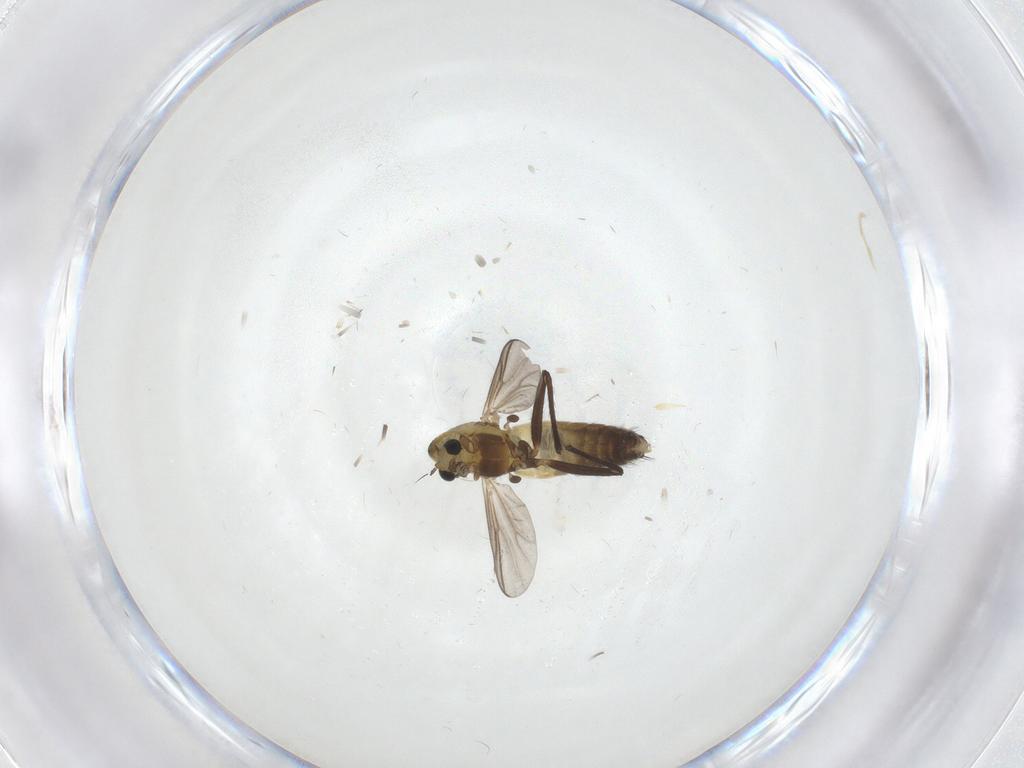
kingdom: Animalia
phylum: Arthropoda
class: Insecta
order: Diptera
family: Chironomidae
